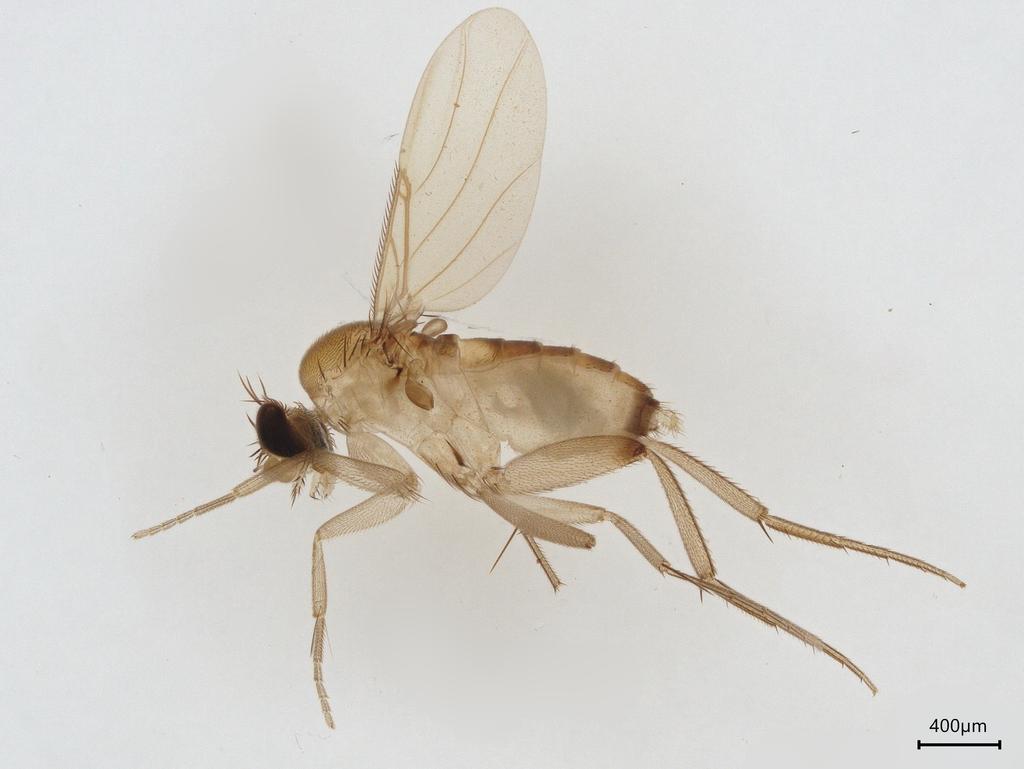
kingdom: Animalia
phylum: Arthropoda
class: Insecta
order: Diptera
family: Phoridae
